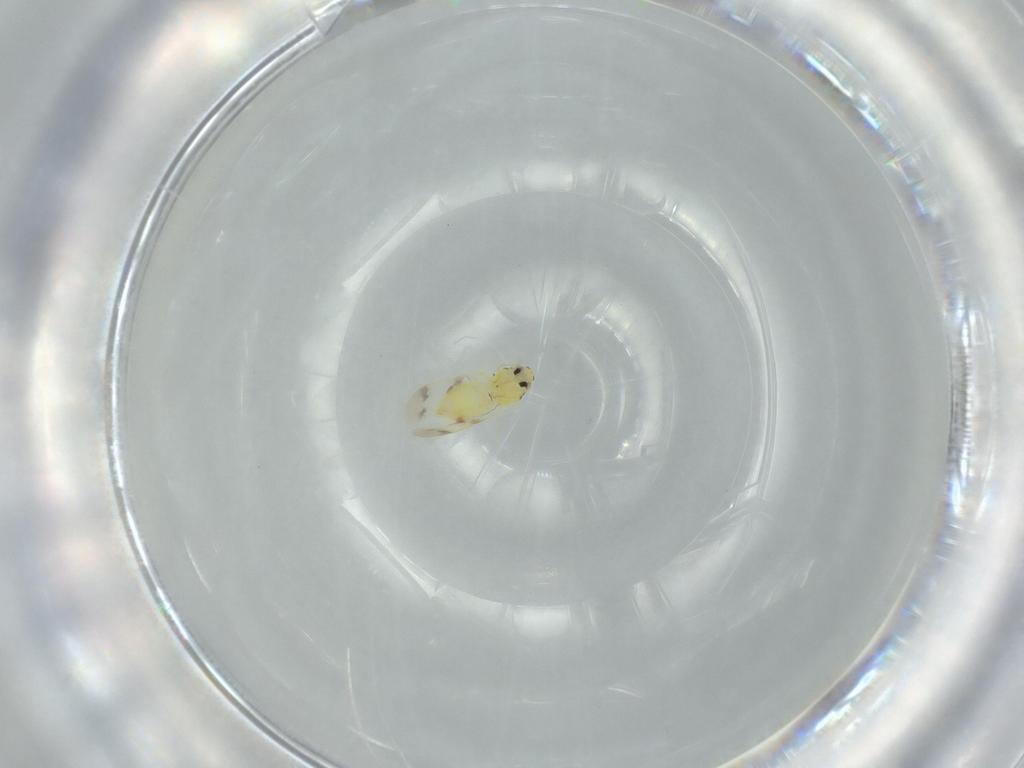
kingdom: Animalia
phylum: Arthropoda
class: Insecta
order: Hemiptera
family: Aleyrodidae
